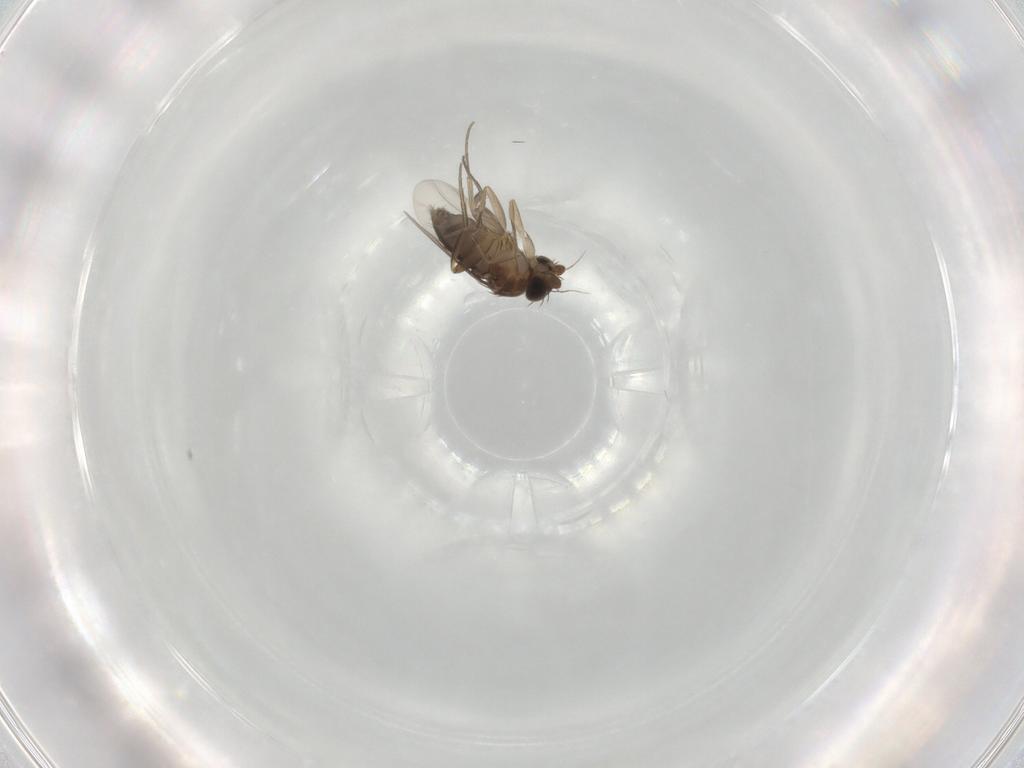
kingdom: Animalia
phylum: Arthropoda
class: Insecta
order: Diptera
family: Phoridae
